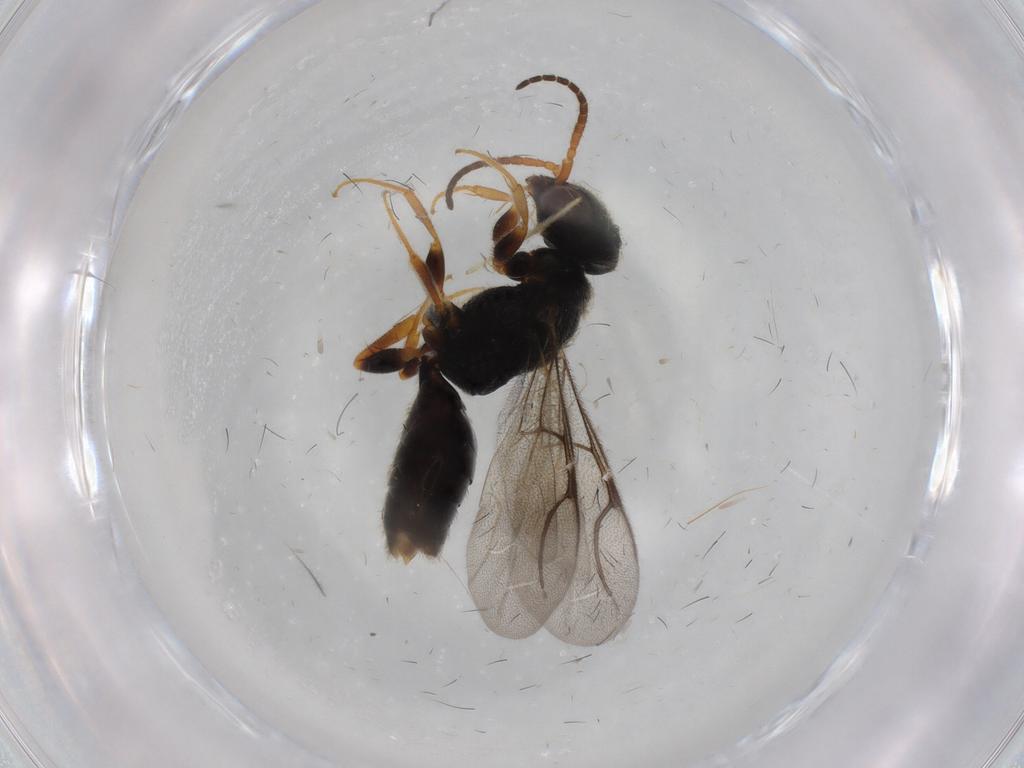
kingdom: Animalia
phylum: Arthropoda
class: Insecta
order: Hymenoptera
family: Bethylidae
